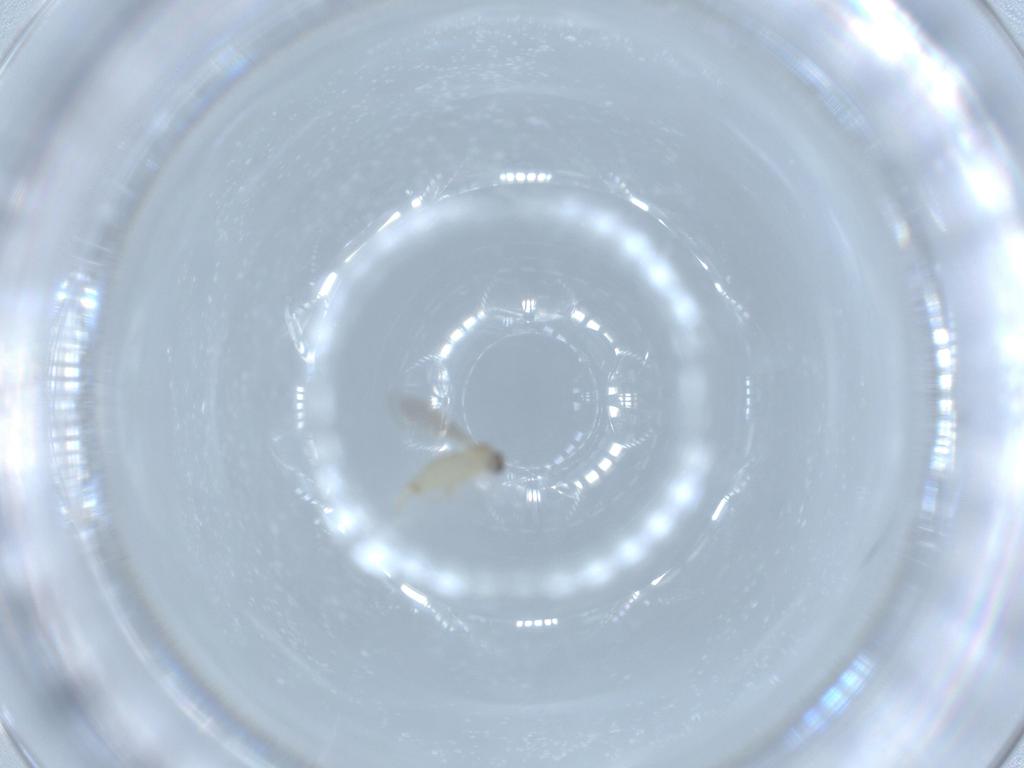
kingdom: Animalia
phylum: Arthropoda
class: Insecta
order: Diptera
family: Cecidomyiidae
